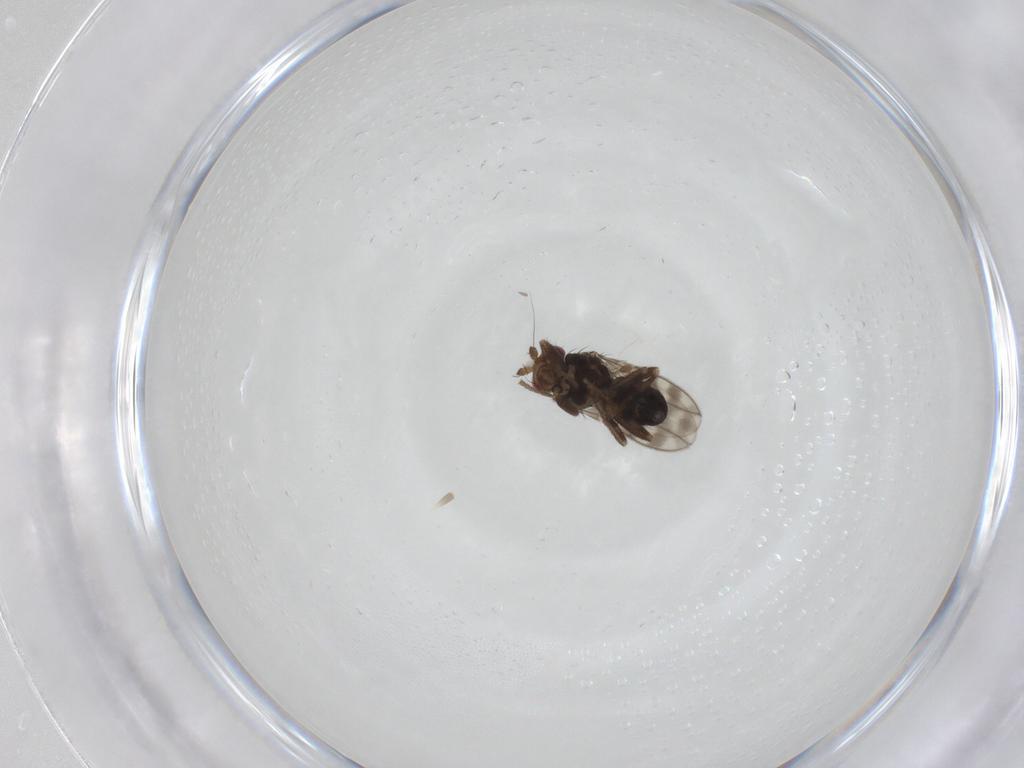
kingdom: Animalia
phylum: Arthropoda
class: Insecta
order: Diptera
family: Sphaeroceridae
